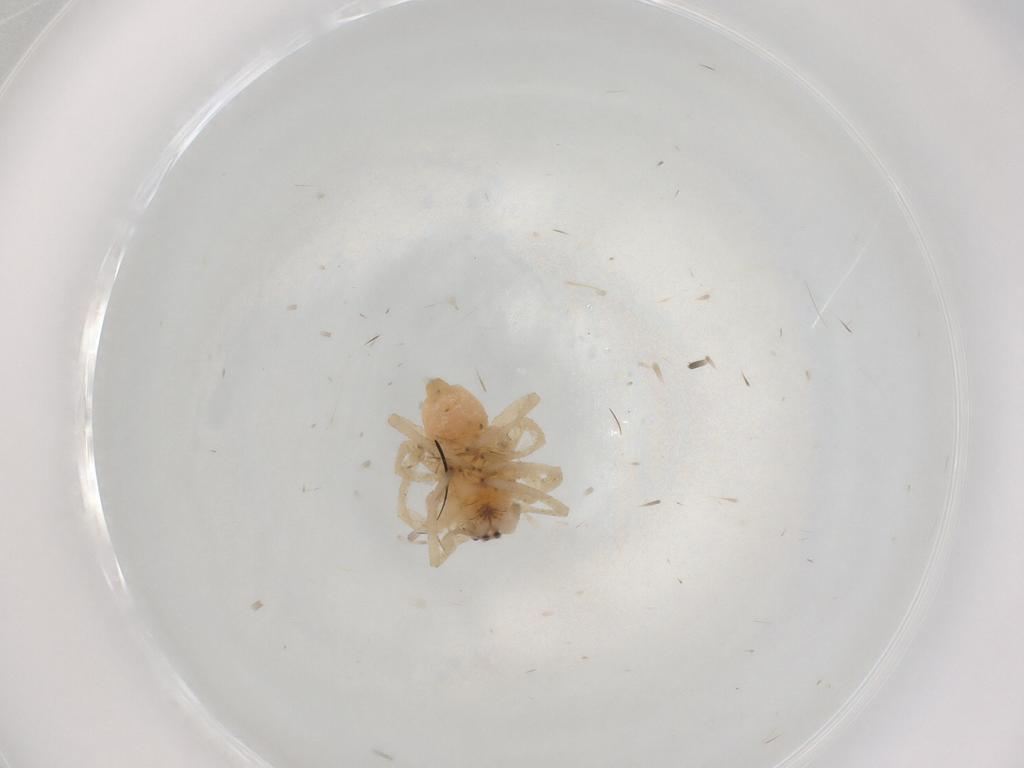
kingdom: Animalia
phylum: Arthropoda
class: Arachnida
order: Araneae
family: Cheiracanthiidae
